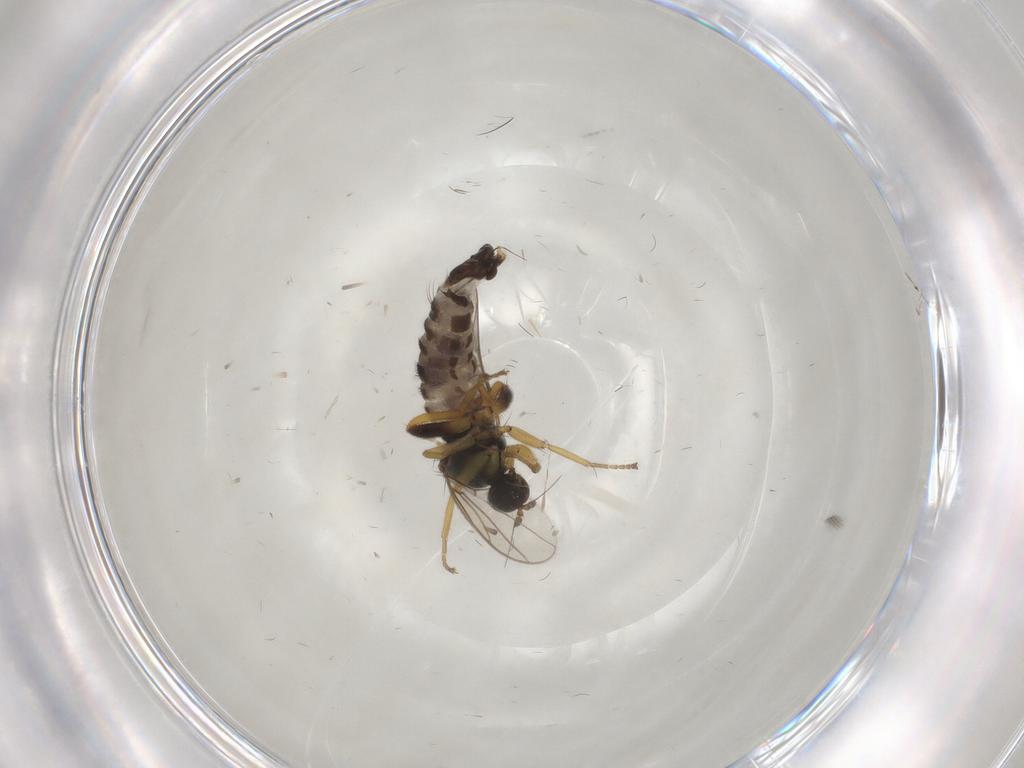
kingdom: Animalia
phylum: Arthropoda
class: Insecta
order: Diptera
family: Hybotidae
